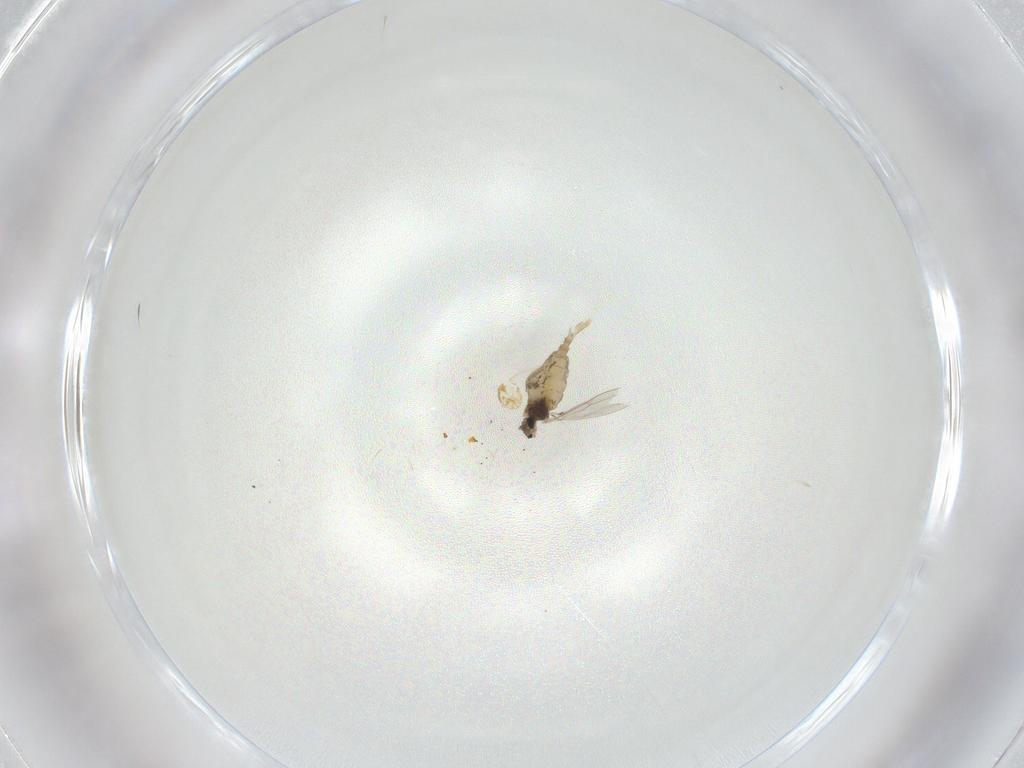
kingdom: Animalia
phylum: Arthropoda
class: Insecta
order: Diptera
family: Cecidomyiidae
